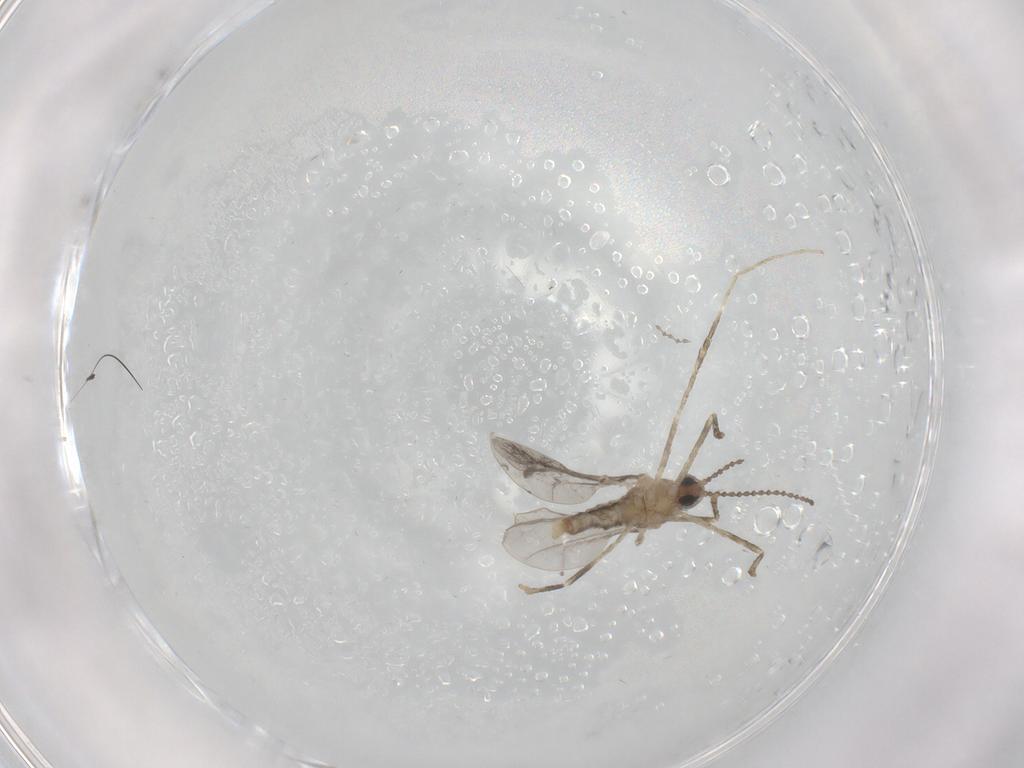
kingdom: Animalia
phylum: Arthropoda
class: Insecta
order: Diptera
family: Cecidomyiidae
